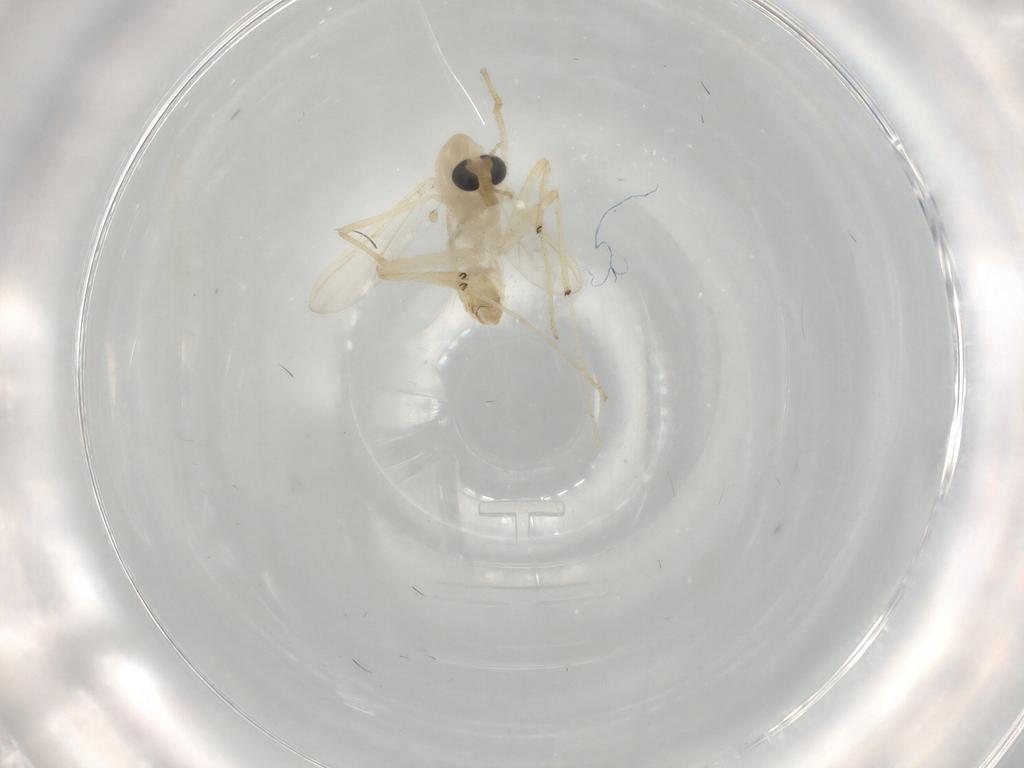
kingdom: Animalia
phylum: Arthropoda
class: Insecta
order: Diptera
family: Chironomidae
